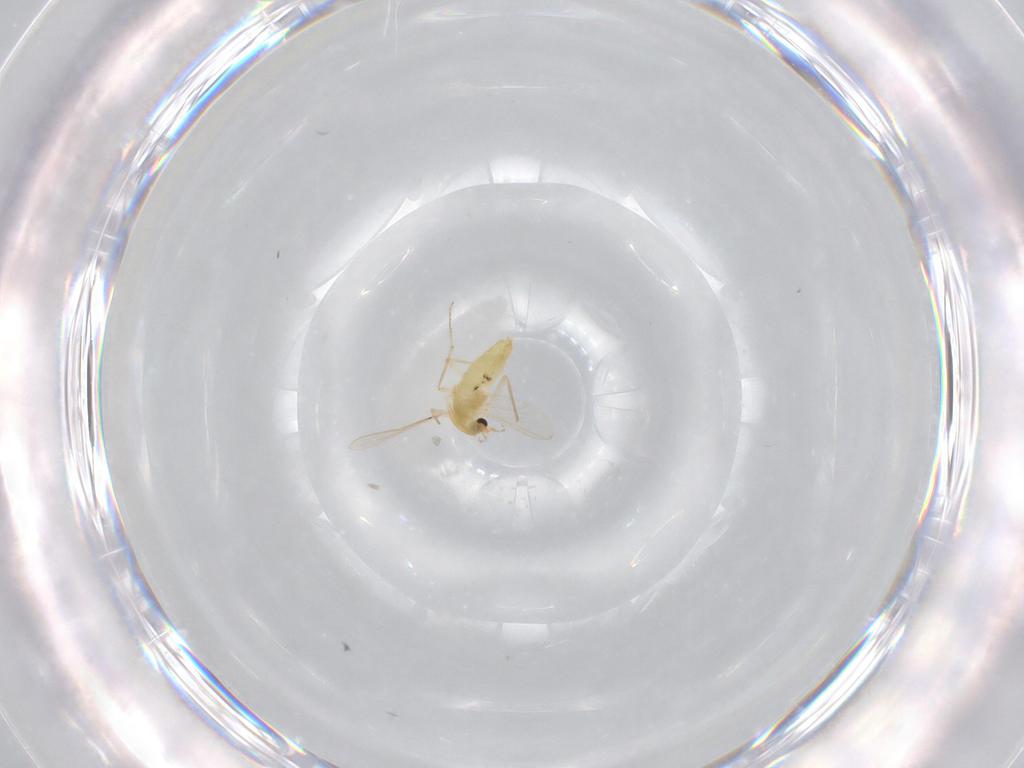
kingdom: Animalia
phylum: Arthropoda
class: Insecta
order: Diptera
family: Chironomidae
